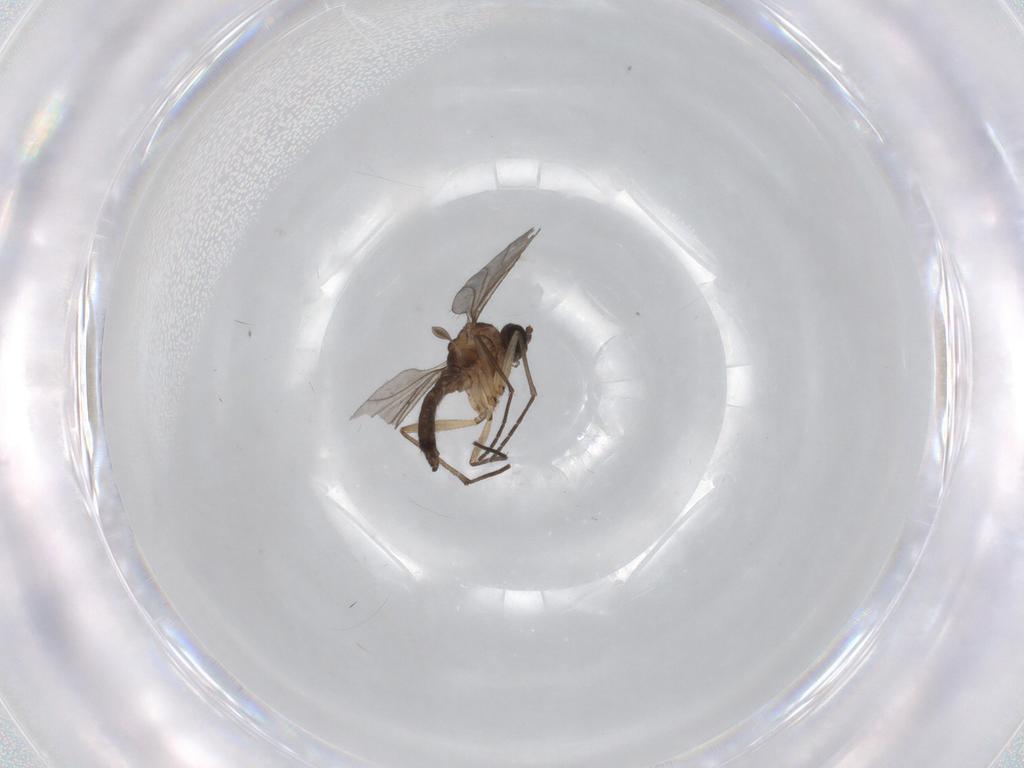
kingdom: Animalia
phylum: Arthropoda
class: Insecta
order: Diptera
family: Sciaridae
